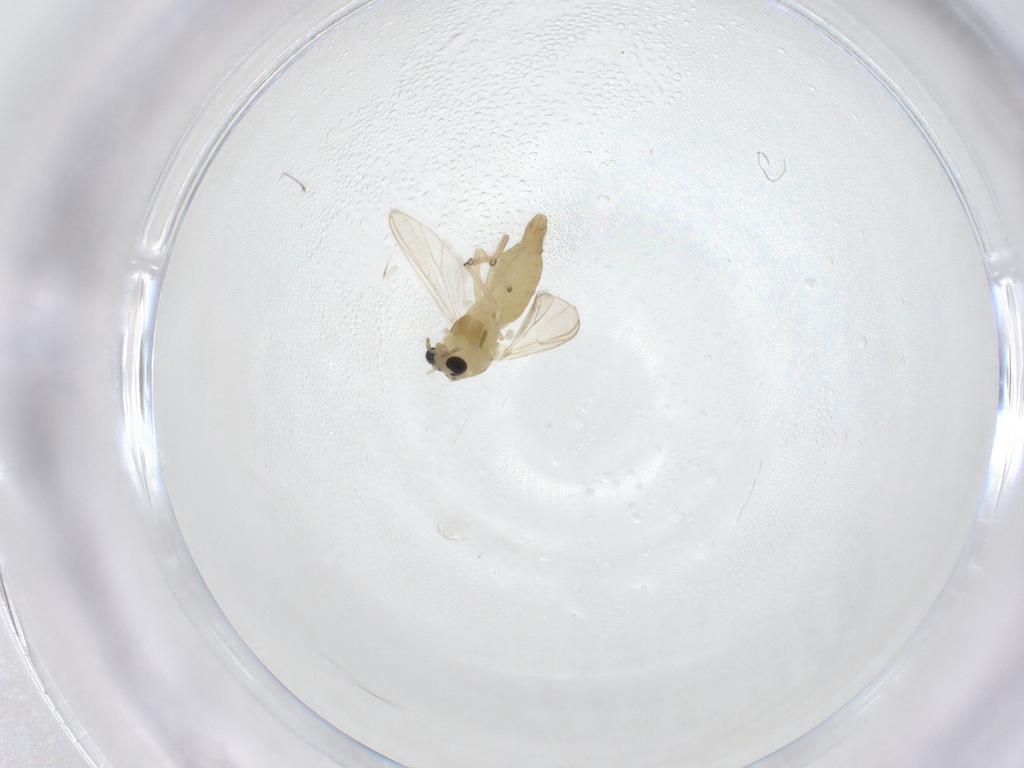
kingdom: Animalia
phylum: Arthropoda
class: Insecta
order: Diptera
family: Chironomidae
